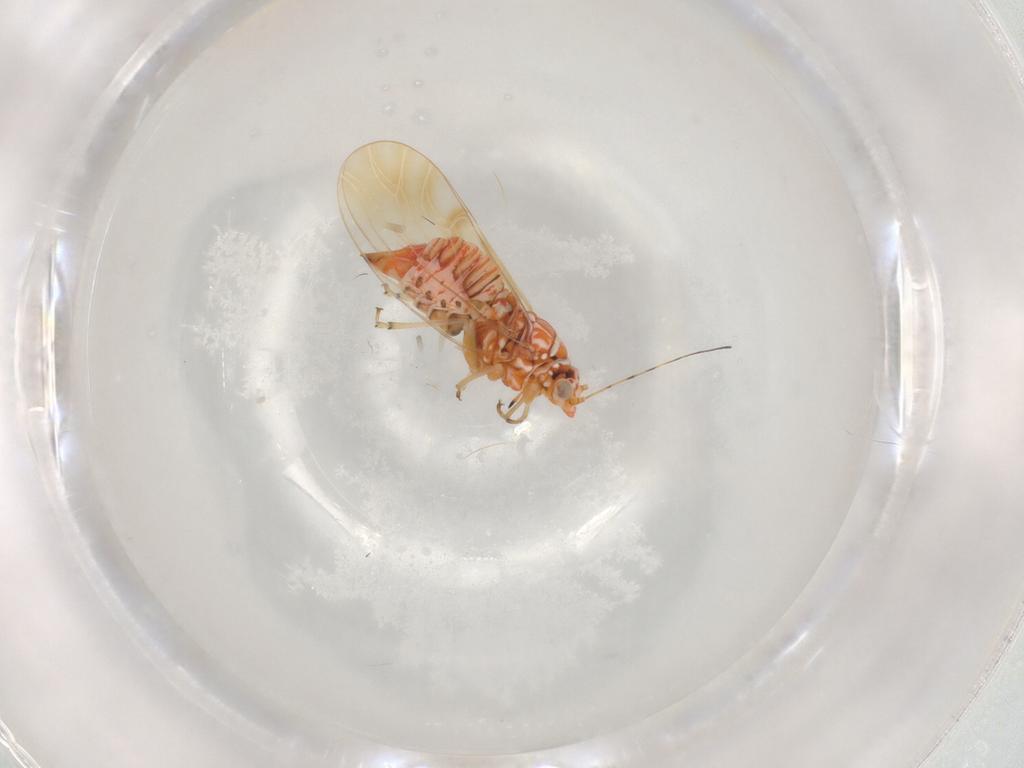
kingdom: Animalia
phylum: Arthropoda
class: Insecta
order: Hemiptera
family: Psyllidae
